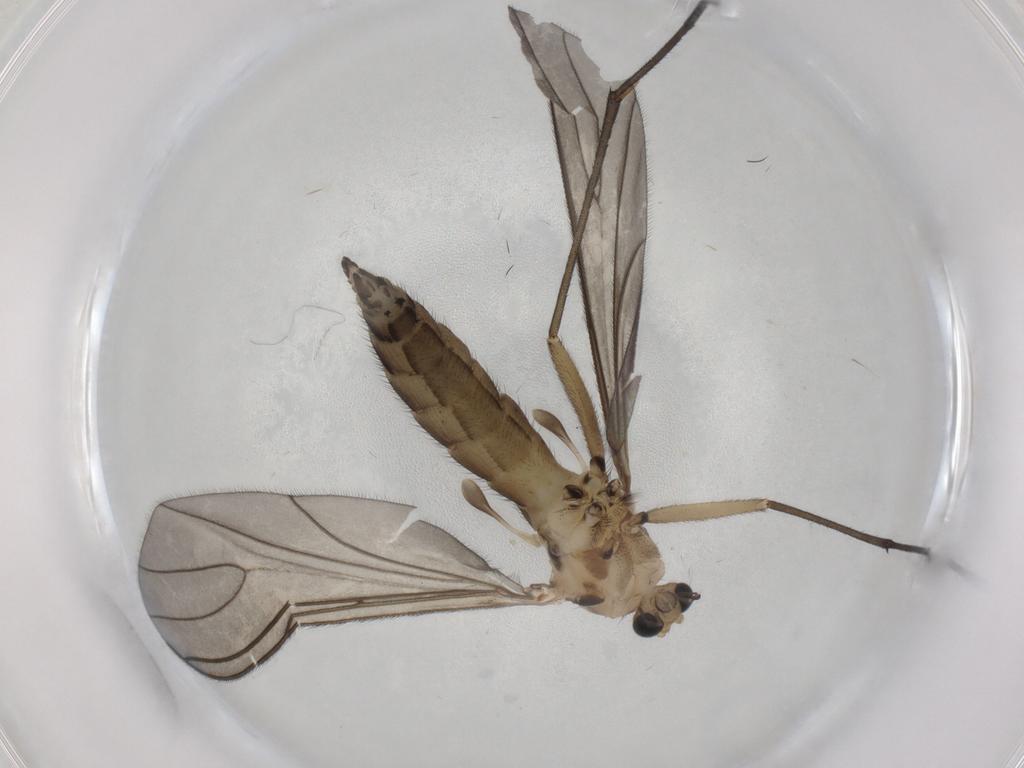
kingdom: Animalia
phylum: Arthropoda
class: Insecta
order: Diptera
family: Sciaridae
